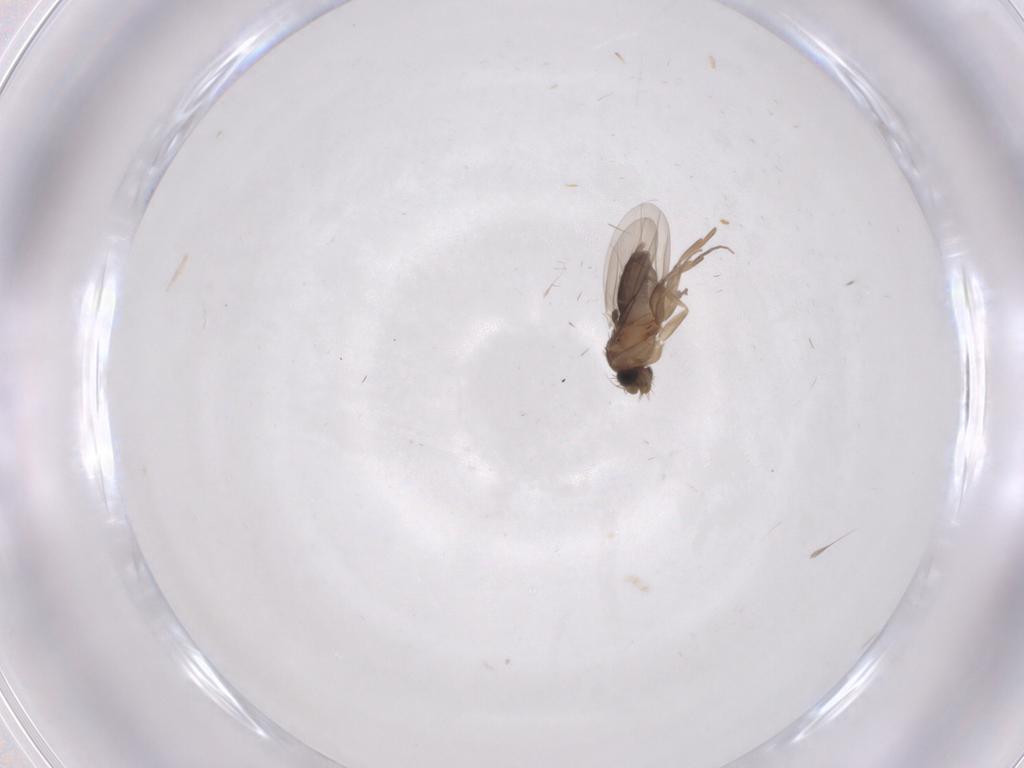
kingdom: Animalia
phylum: Arthropoda
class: Insecta
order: Diptera
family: Phoridae
